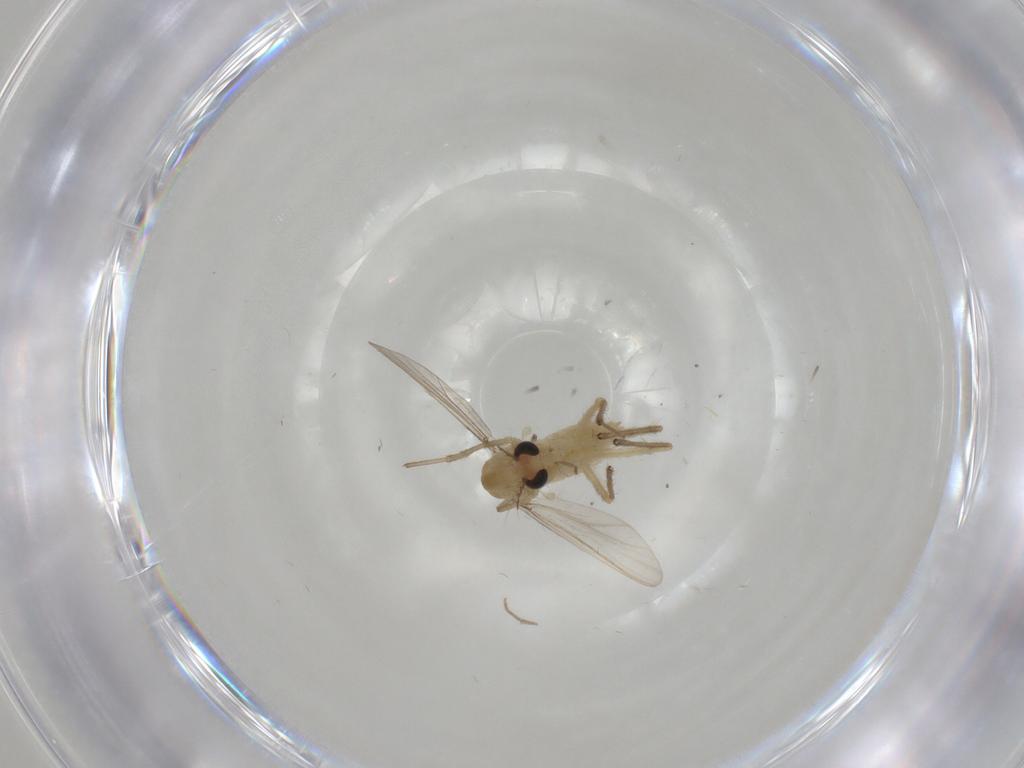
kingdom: Animalia
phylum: Arthropoda
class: Insecta
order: Diptera
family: Chironomidae
